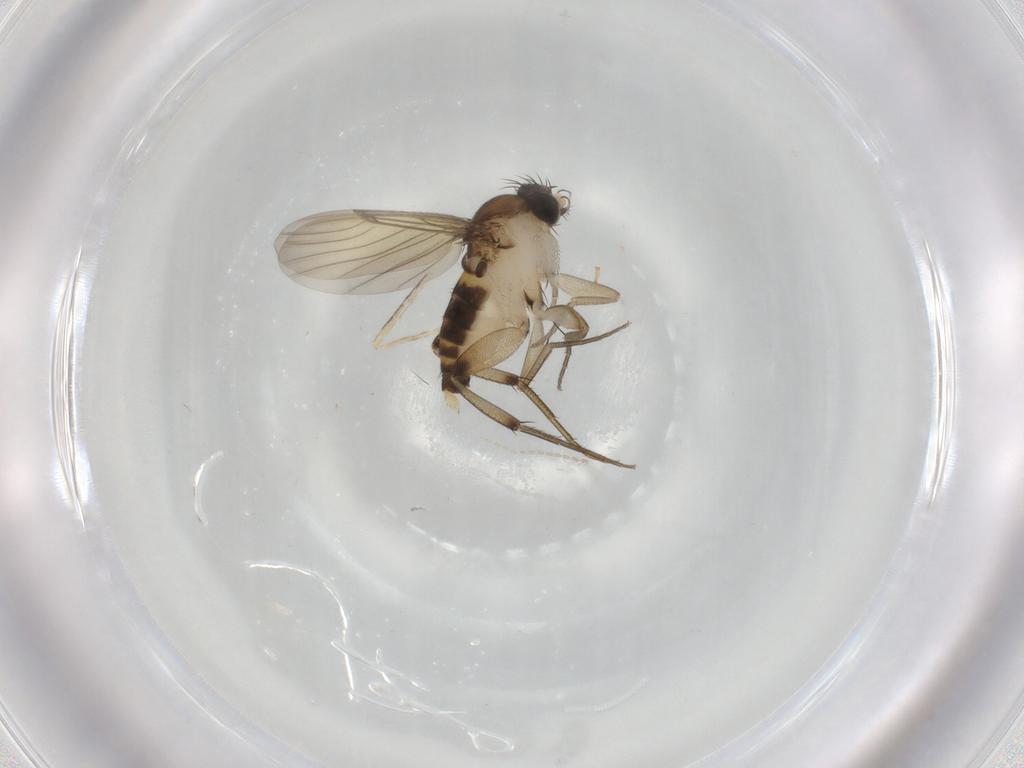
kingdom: Animalia
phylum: Arthropoda
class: Insecta
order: Diptera
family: Phoridae
